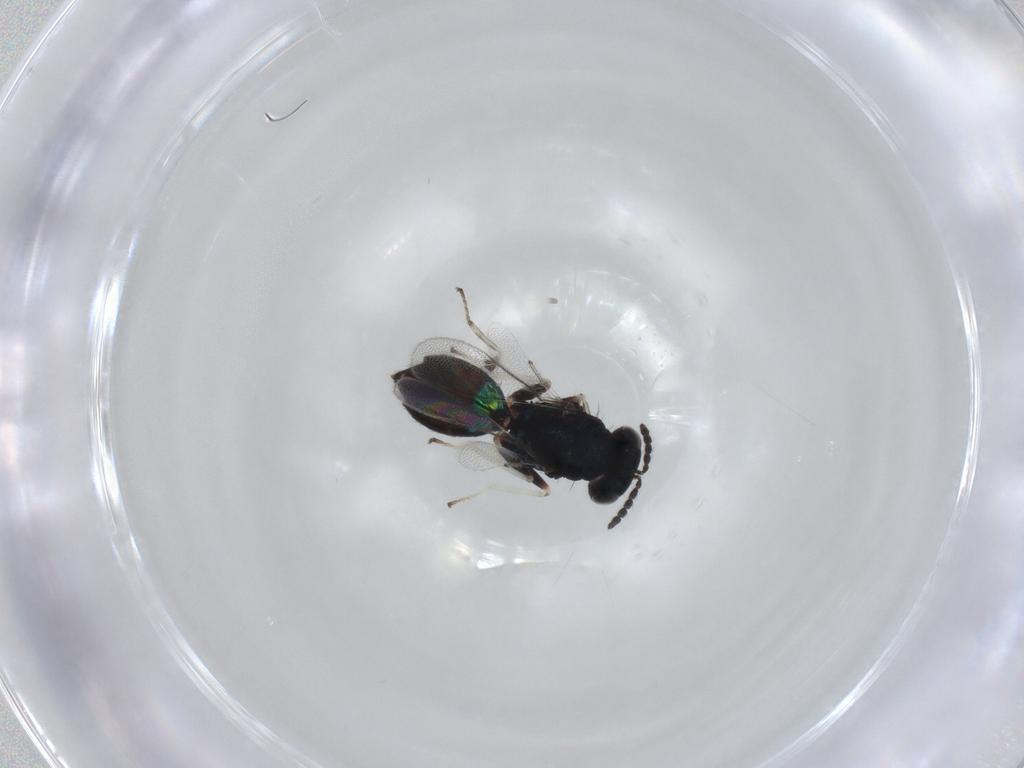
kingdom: Animalia
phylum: Arthropoda
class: Insecta
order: Hymenoptera
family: Eulophidae
